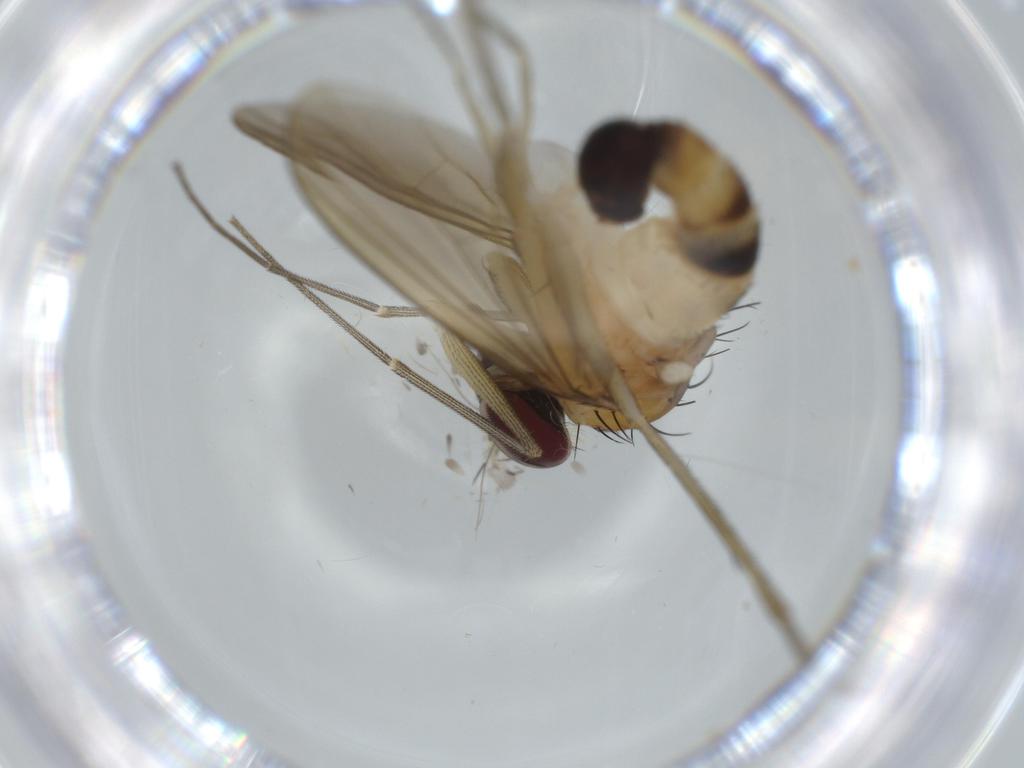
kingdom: Animalia
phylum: Arthropoda
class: Insecta
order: Diptera
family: Dolichopodidae
